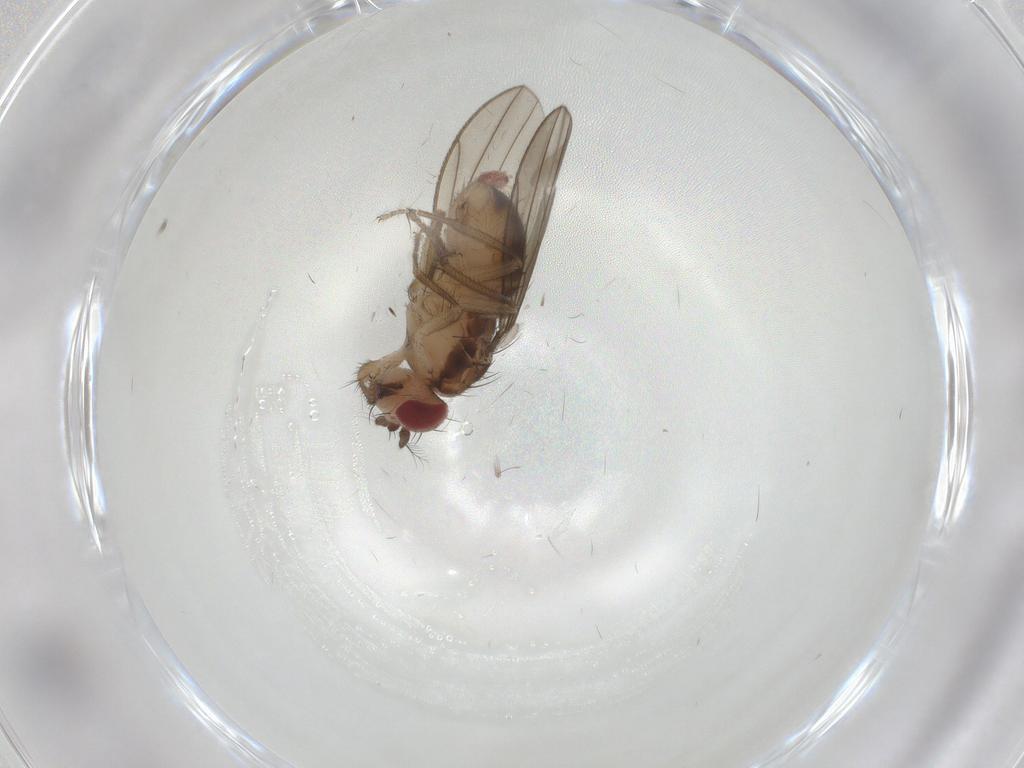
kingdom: Animalia
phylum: Arthropoda
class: Insecta
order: Diptera
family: Drosophilidae
